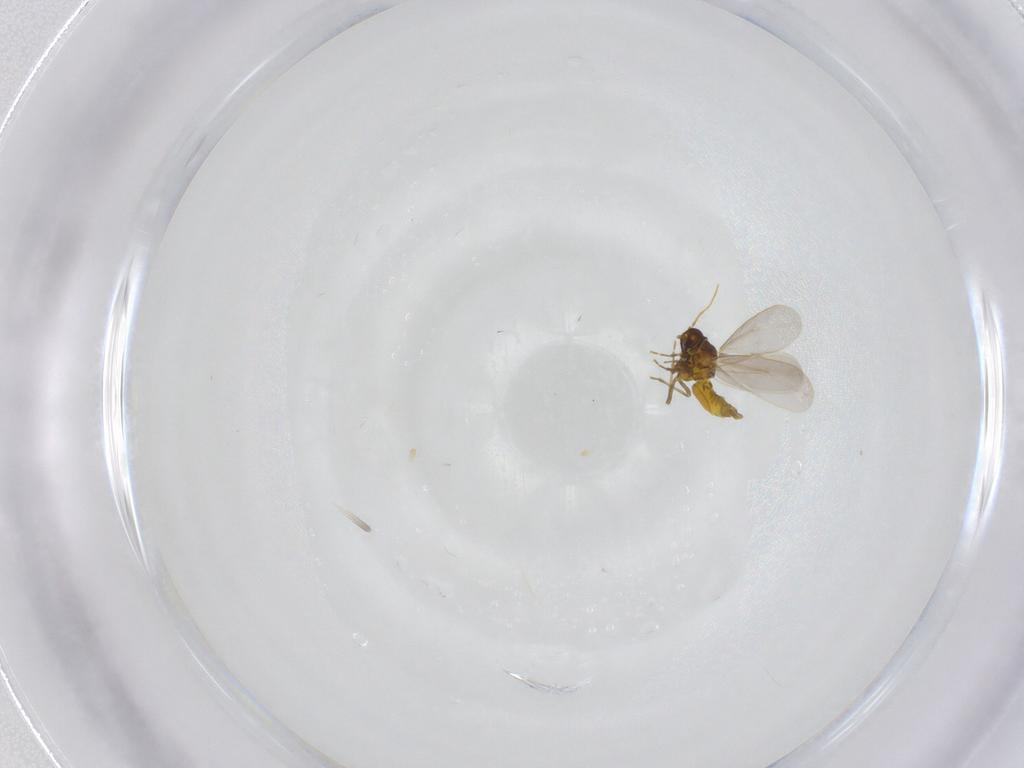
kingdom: Animalia
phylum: Arthropoda
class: Insecta
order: Hemiptera
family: Aleyrodidae
